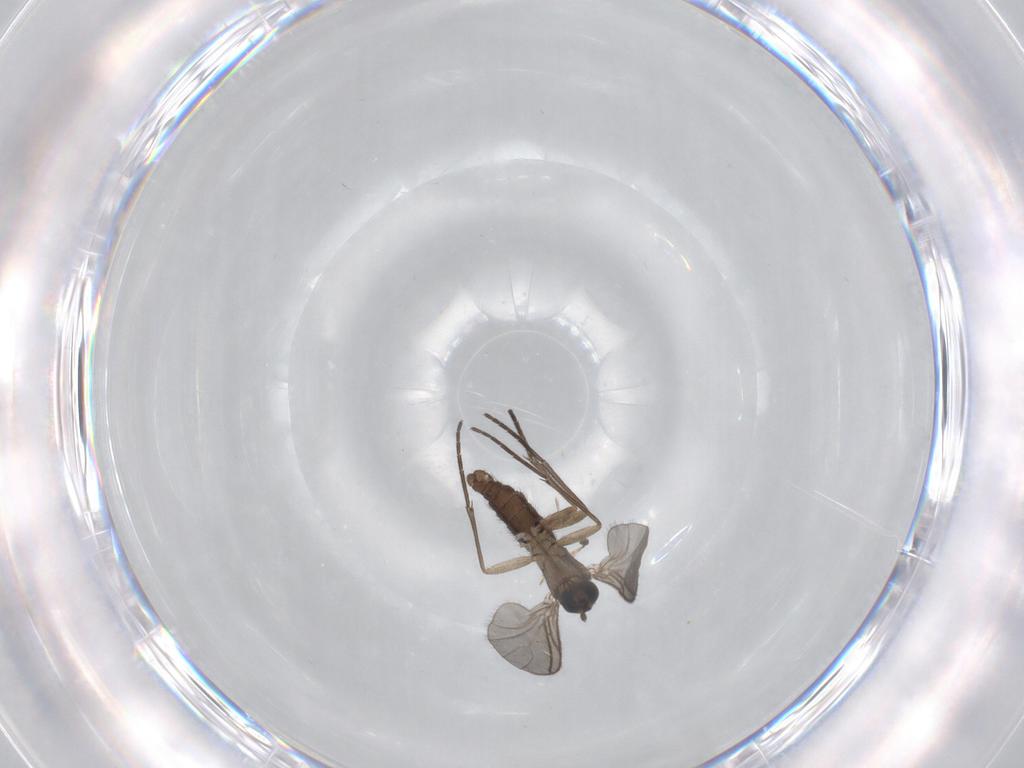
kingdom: Animalia
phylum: Arthropoda
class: Insecta
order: Diptera
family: Sciaridae
